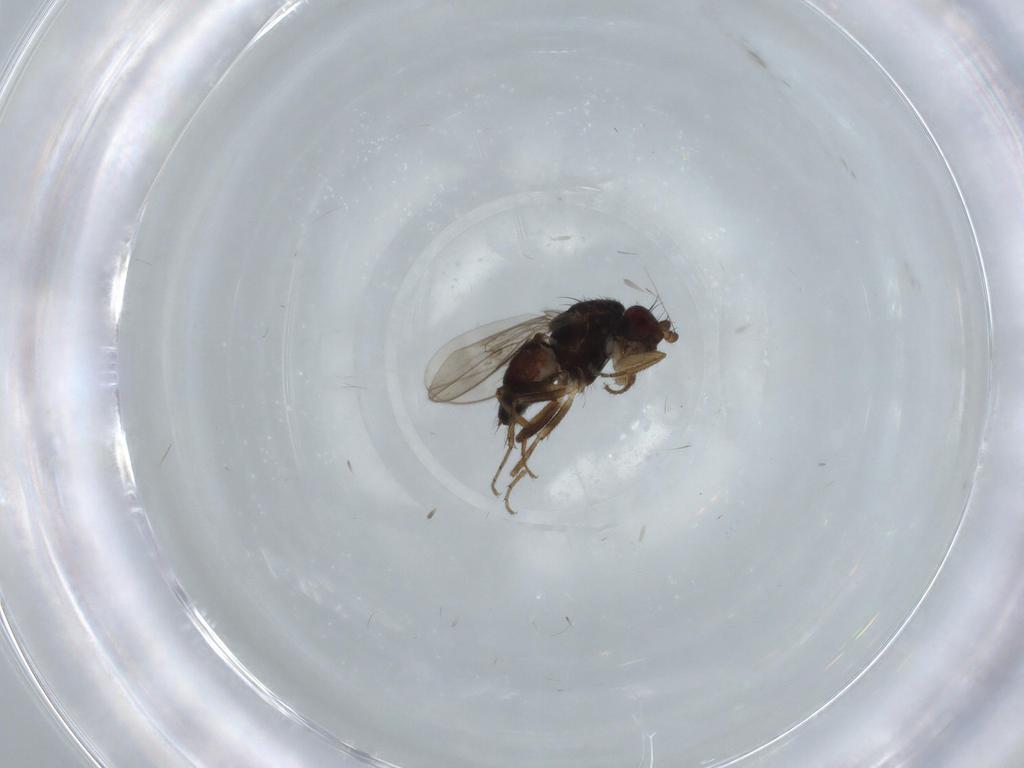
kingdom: Animalia
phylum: Arthropoda
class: Insecta
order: Diptera
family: Sphaeroceridae
